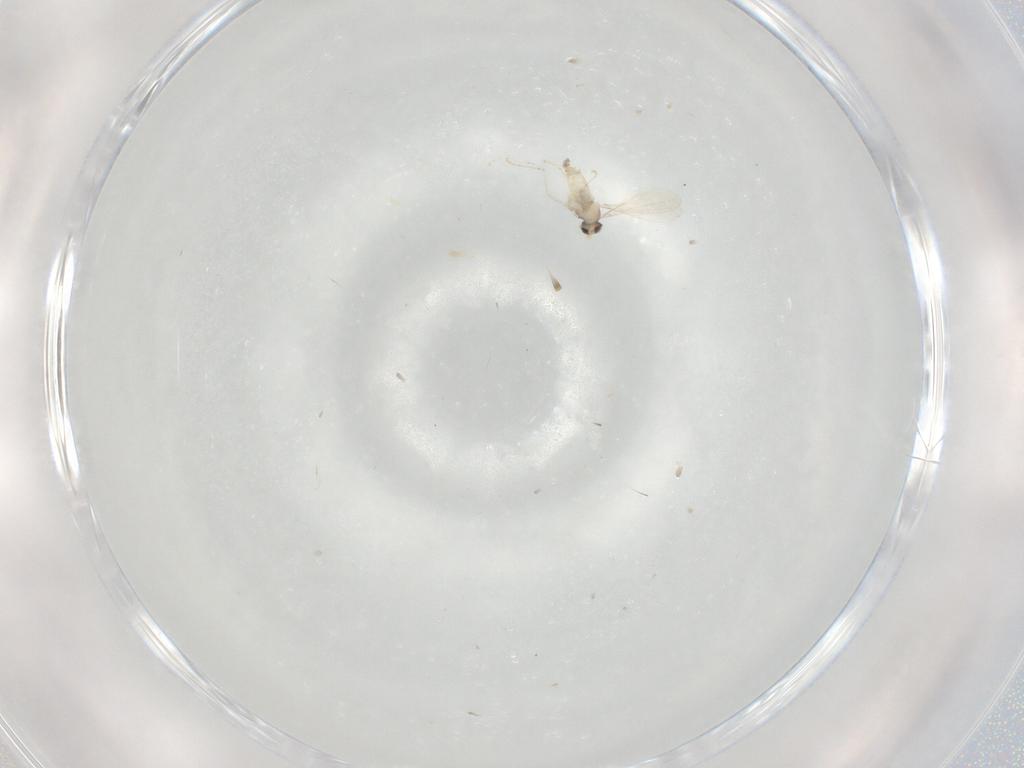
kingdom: Animalia
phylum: Arthropoda
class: Insecta
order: Diptera
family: Cecidomyiidae
